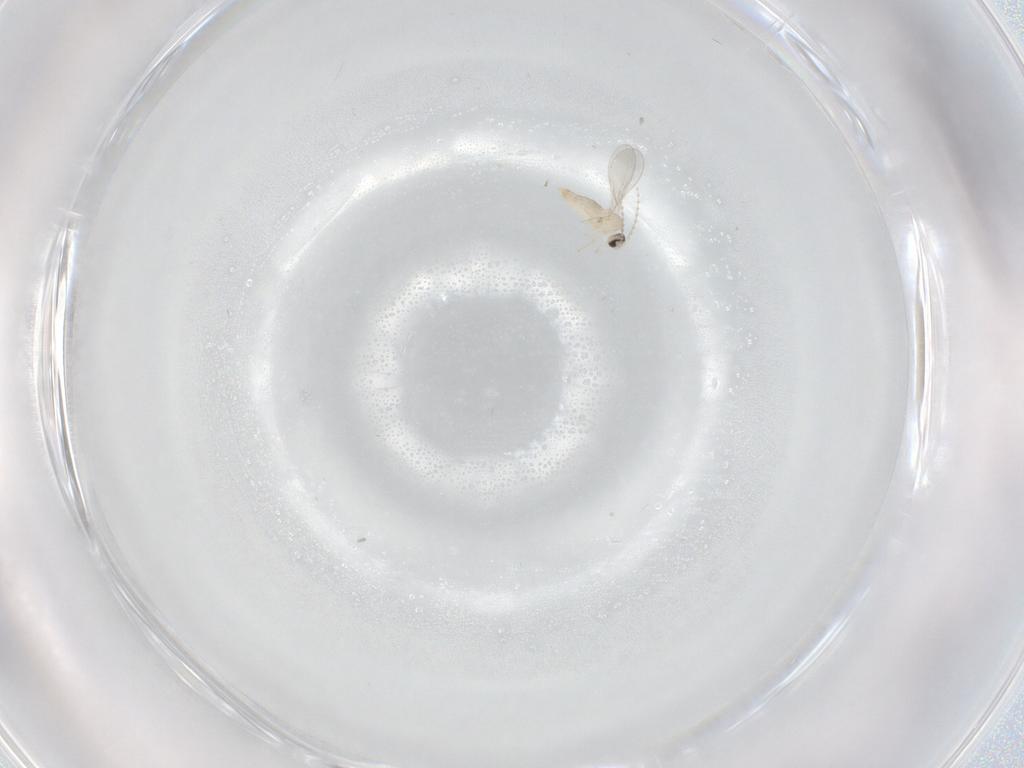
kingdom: Animalia
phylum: Arthropoda
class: Insecta
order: Diptera
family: Cecidomyiidae
